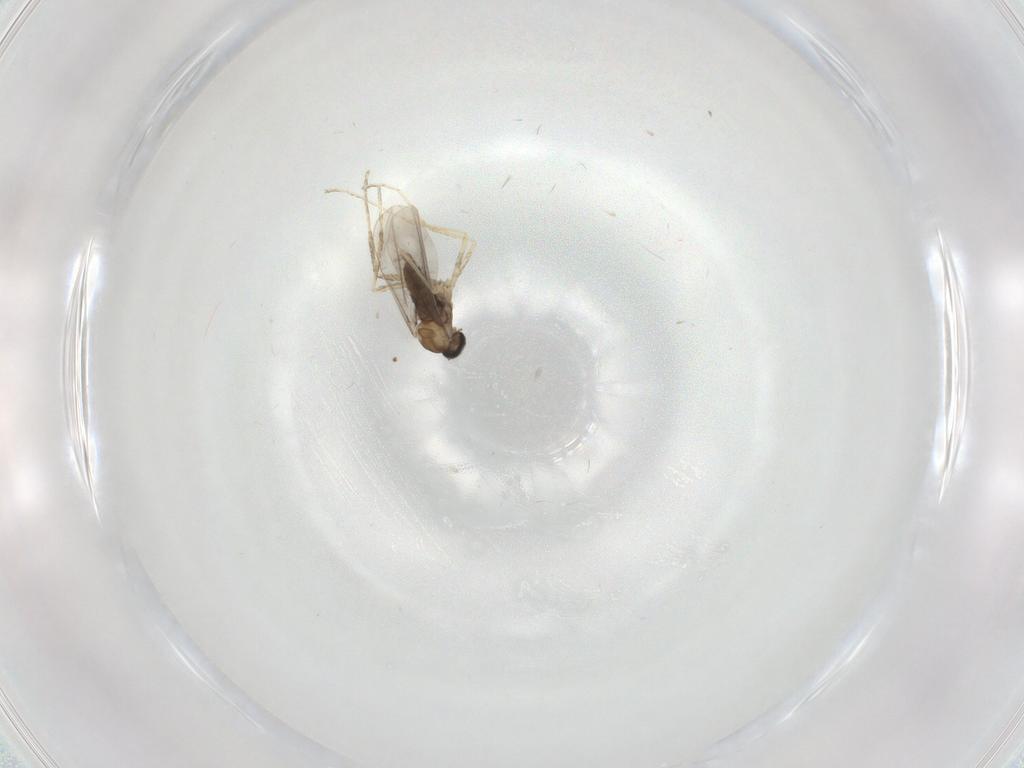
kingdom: Animalia
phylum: Arthropoda
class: Insecta
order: Diptera
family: Cecidomyiidae
